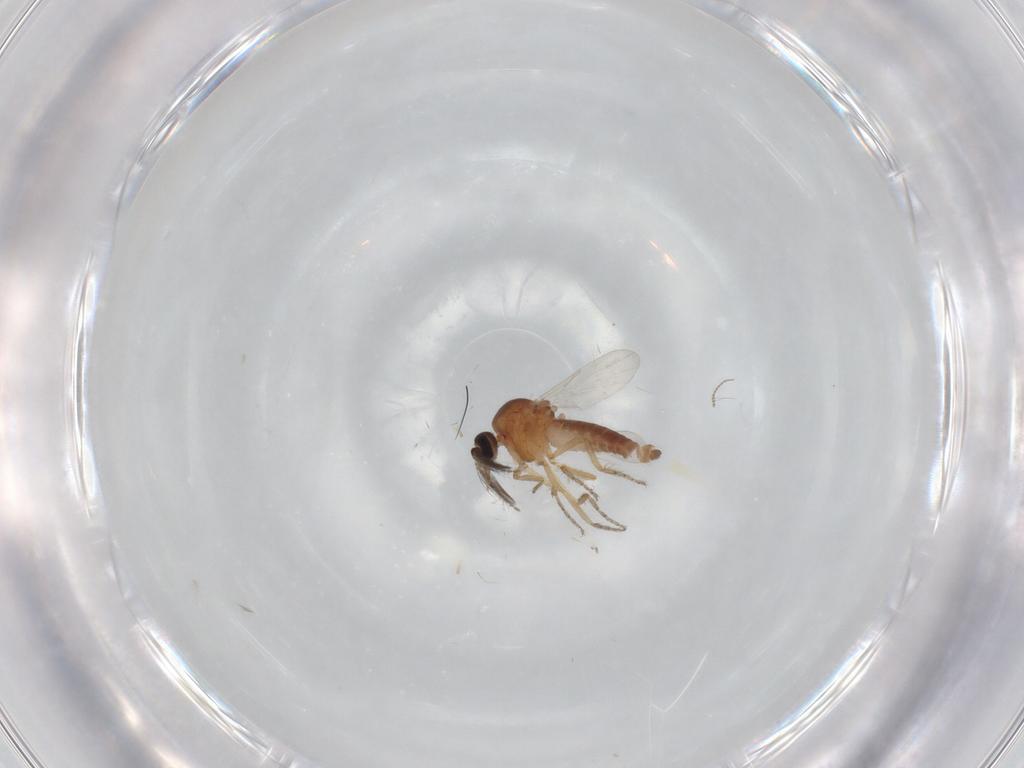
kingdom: Animalia
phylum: Arthropoda
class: Insecta
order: Diptera
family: Ceratopogonidae
